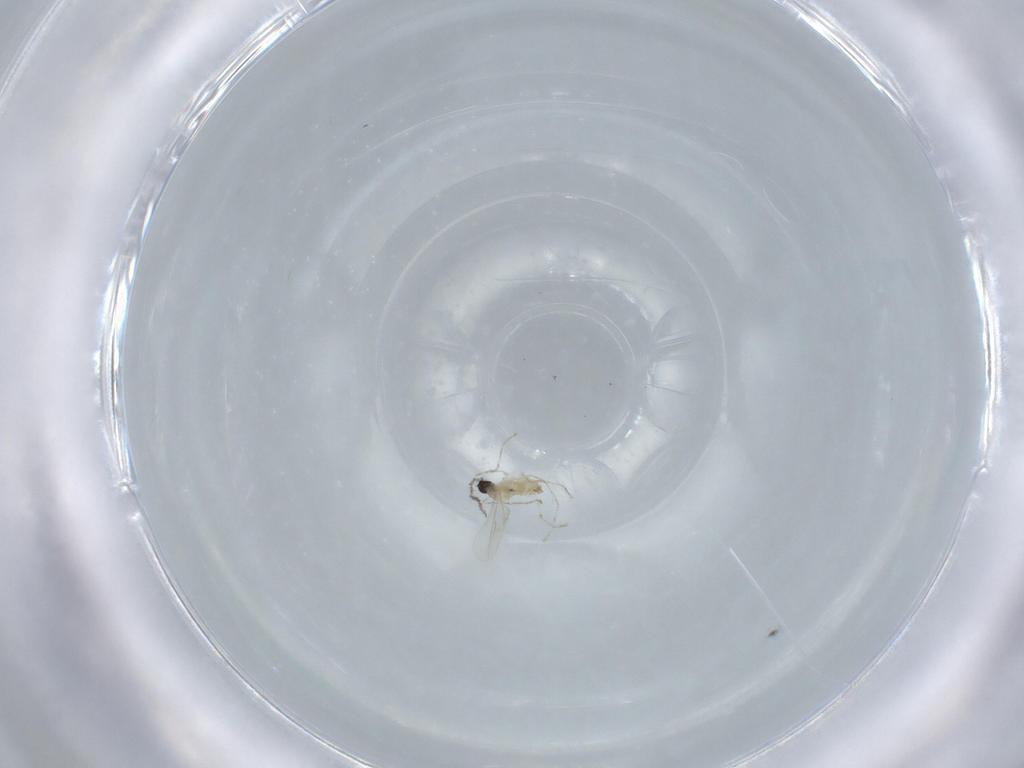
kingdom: Animalia
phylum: Arthropoda
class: Insecta
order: Diptera
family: Cecidomyiidae
